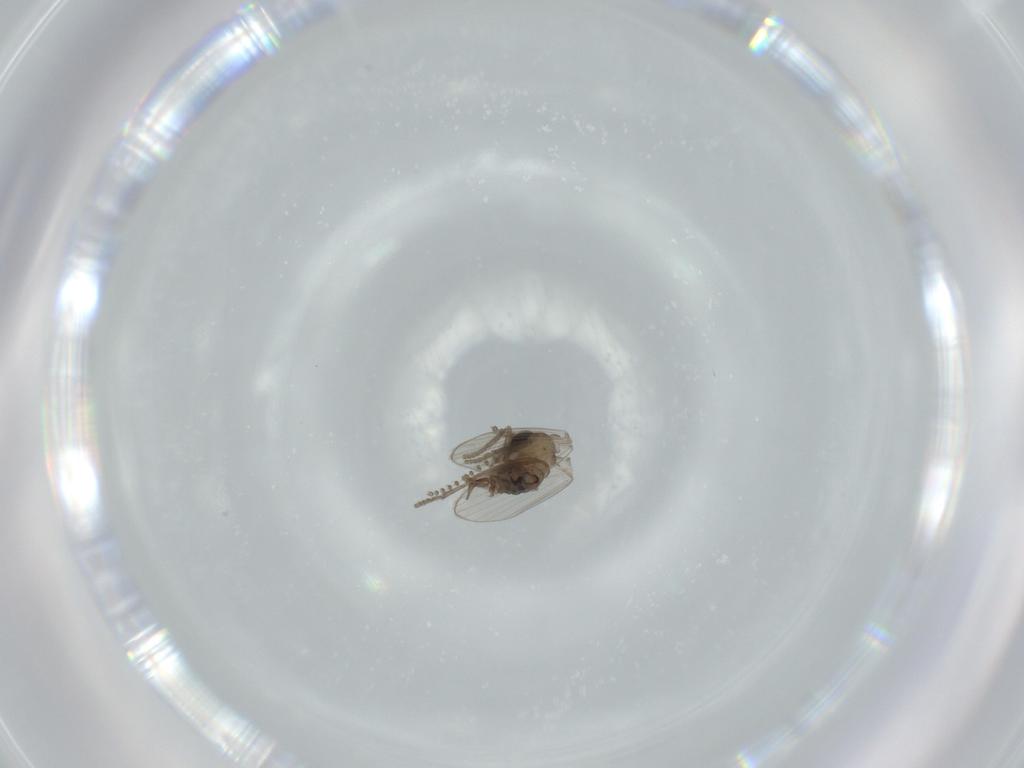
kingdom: Animalia
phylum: Arthropoda
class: Insecta
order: Diptera
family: Psychodidae
